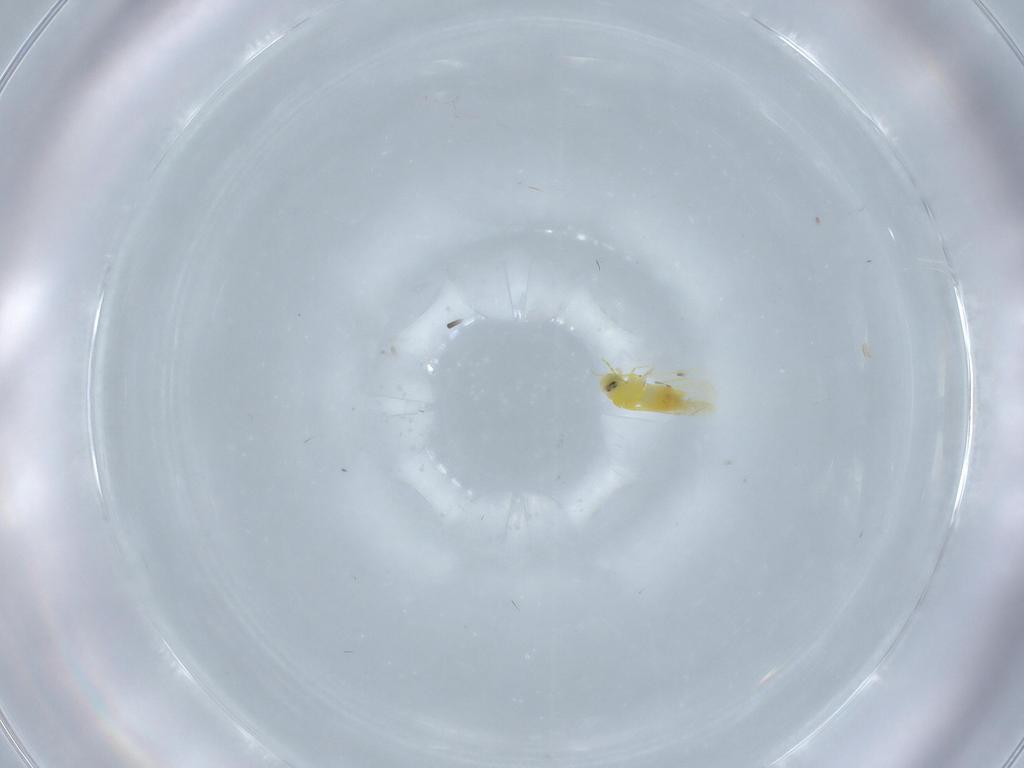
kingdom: Animalia
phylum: Arthropoda
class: Insecta
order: Hemiptera
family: Aleyrodidae
